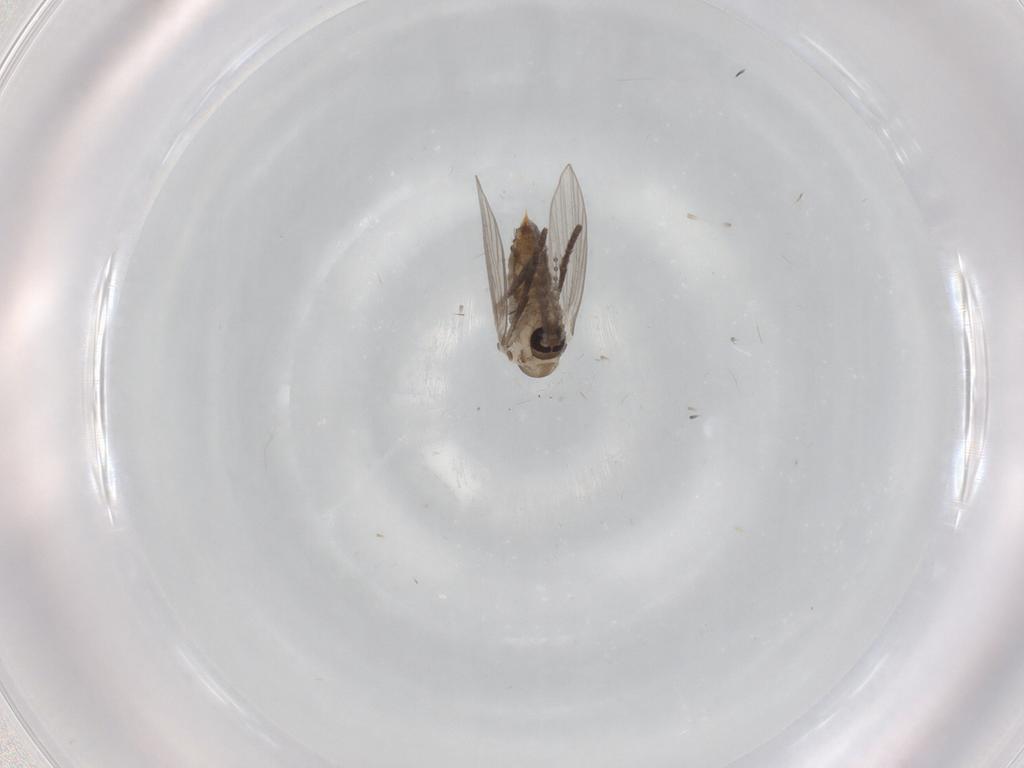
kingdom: Animalia
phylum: Arthropoda
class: Insecta
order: Diptera
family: Psychodidae
